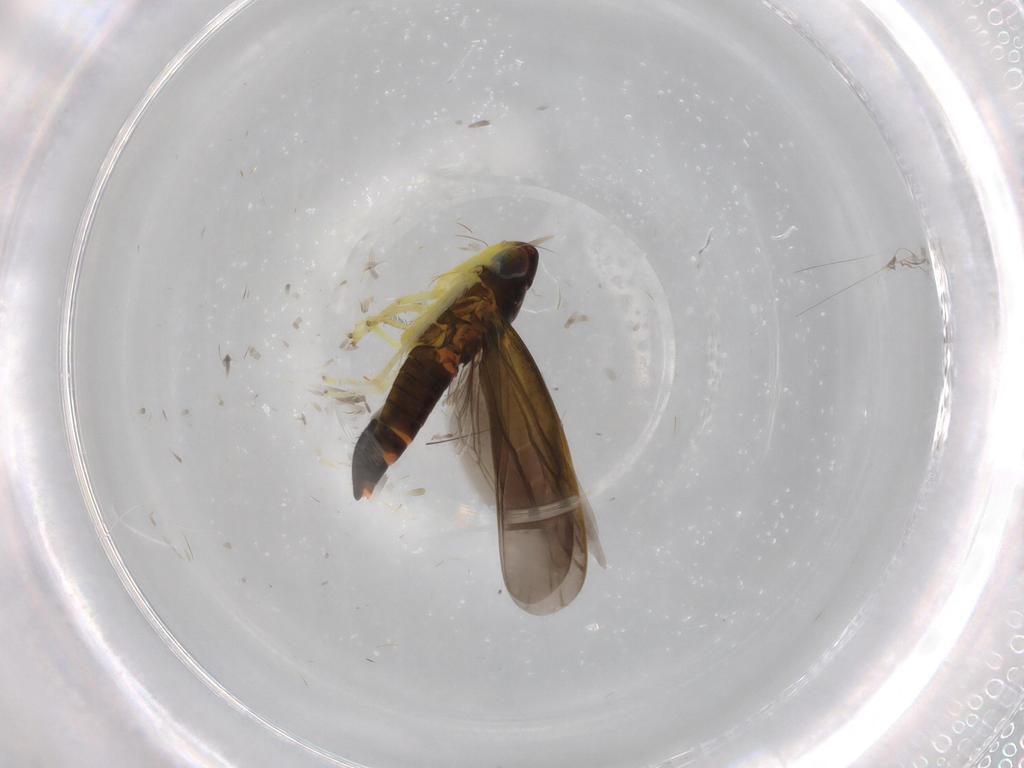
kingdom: Animalia
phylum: Arthropoda
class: Insecta
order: Hemiptera
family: Cicadellidae
